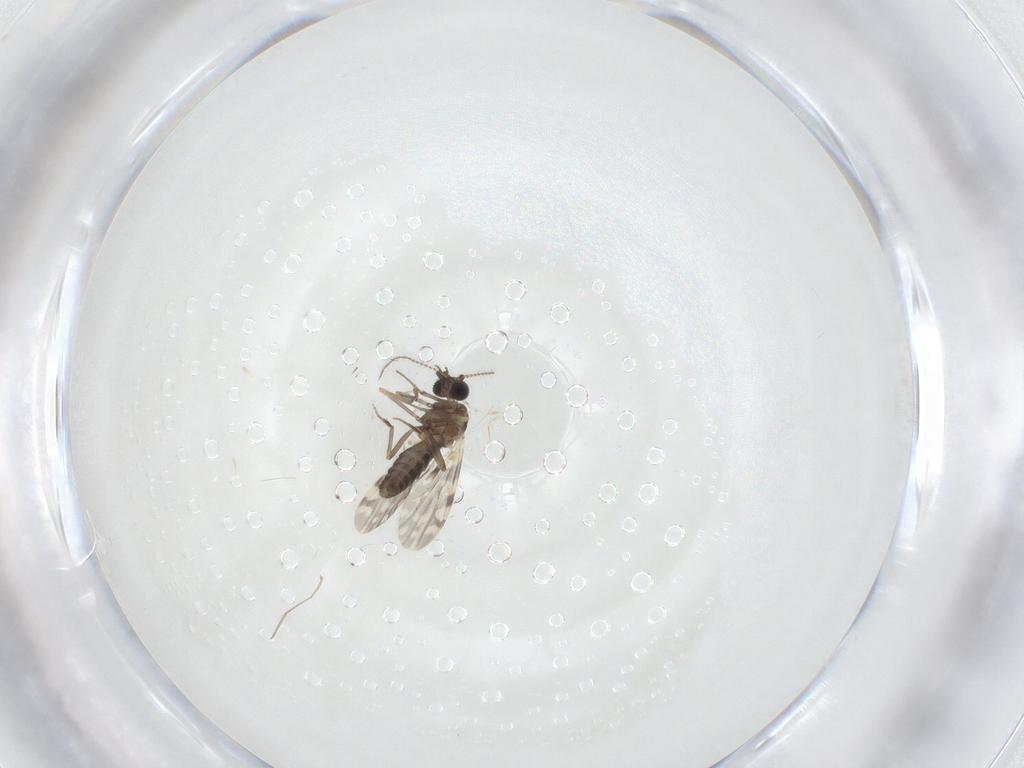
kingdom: Animalia
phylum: Arthropoda
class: Insecta
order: Diptera
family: Ceratopogonidae
